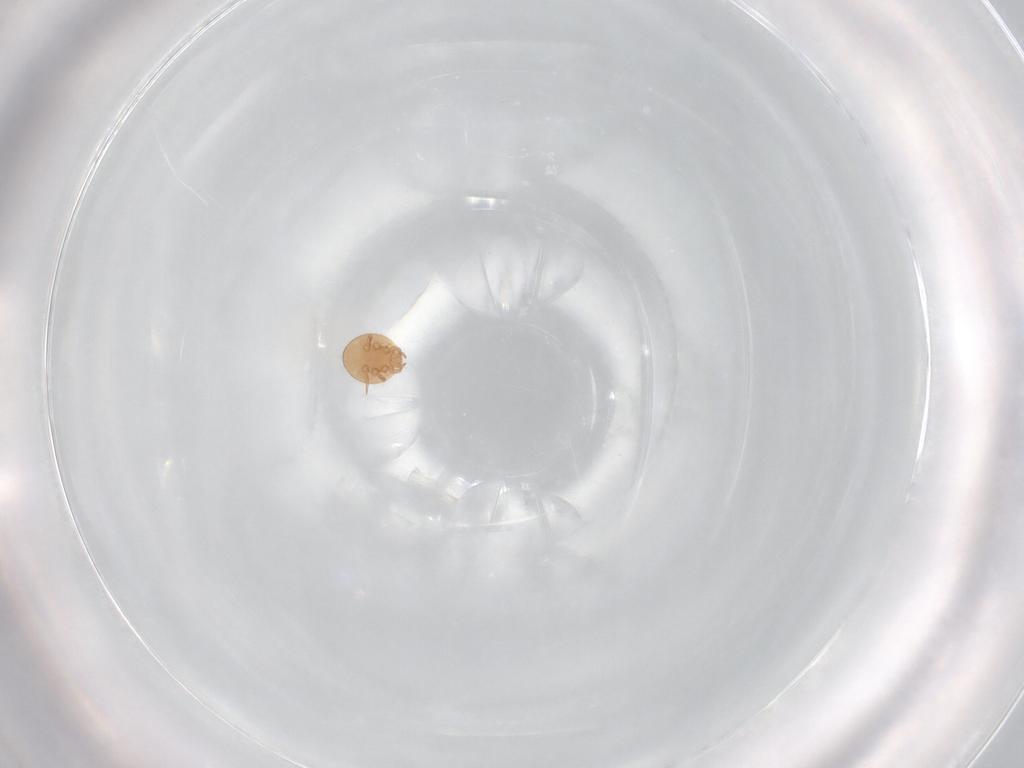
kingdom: Animalia
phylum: Arthropoda
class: Arachnida
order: Mesostigmata
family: Trematuridae
